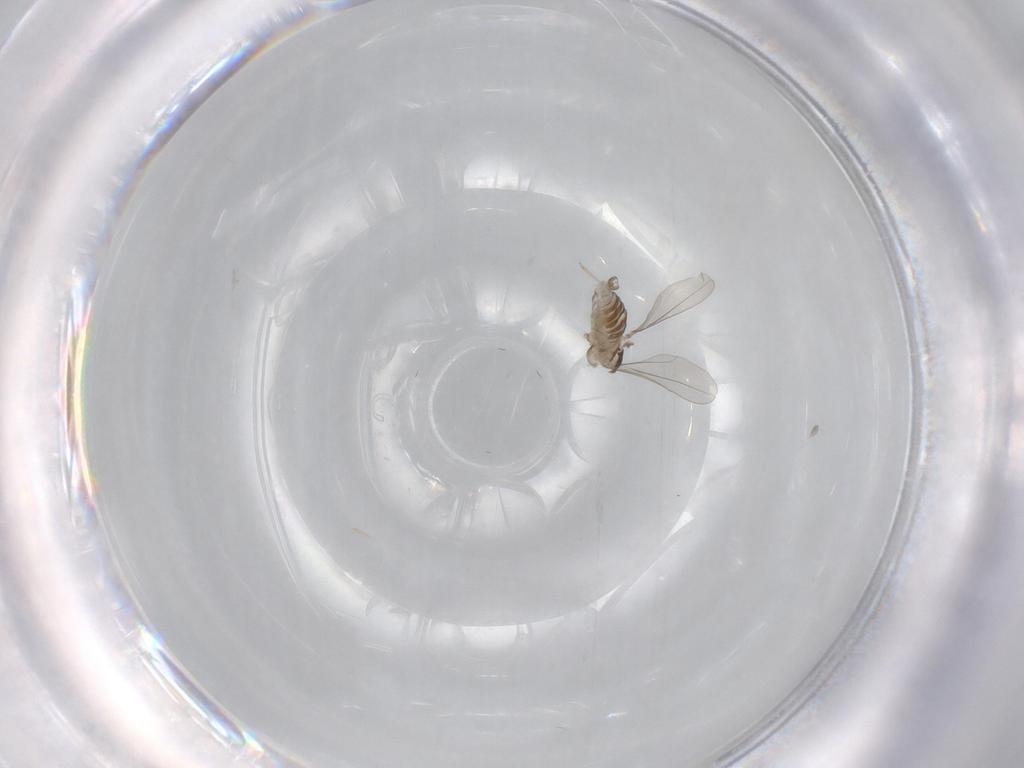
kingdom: Animalia
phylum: Arthropoda
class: Insecta
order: Diptera
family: Cecidomyiidae
